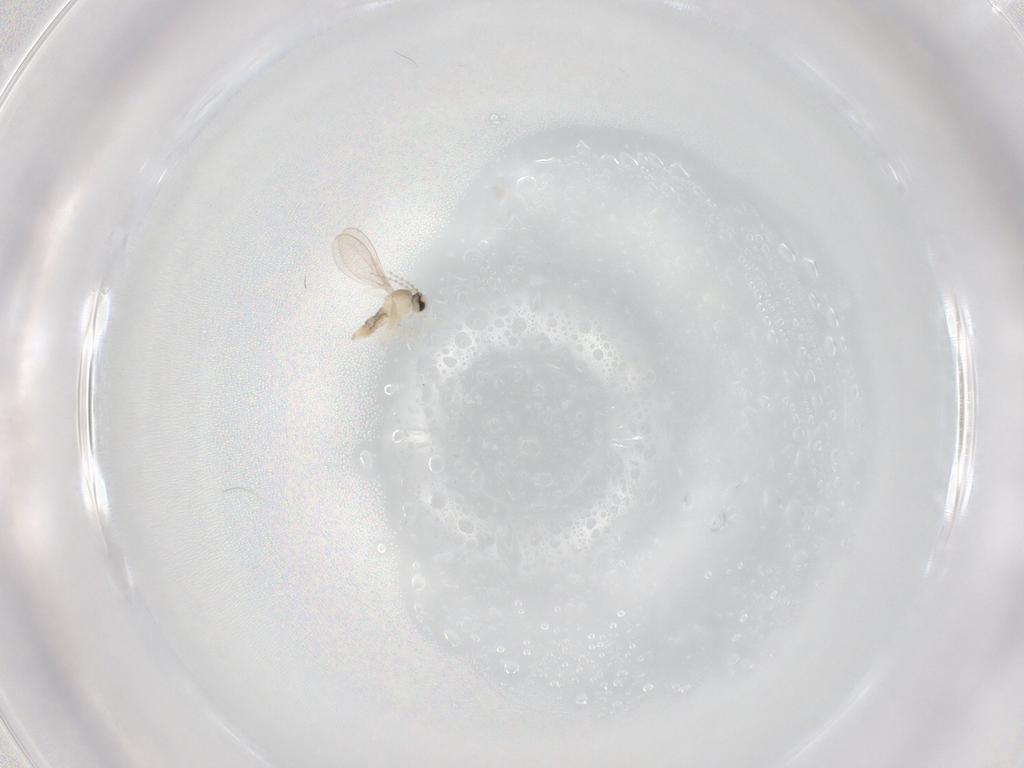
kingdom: Animalia
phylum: Arthropoda
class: Insecta
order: Diptera
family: Cecidomyiidae
